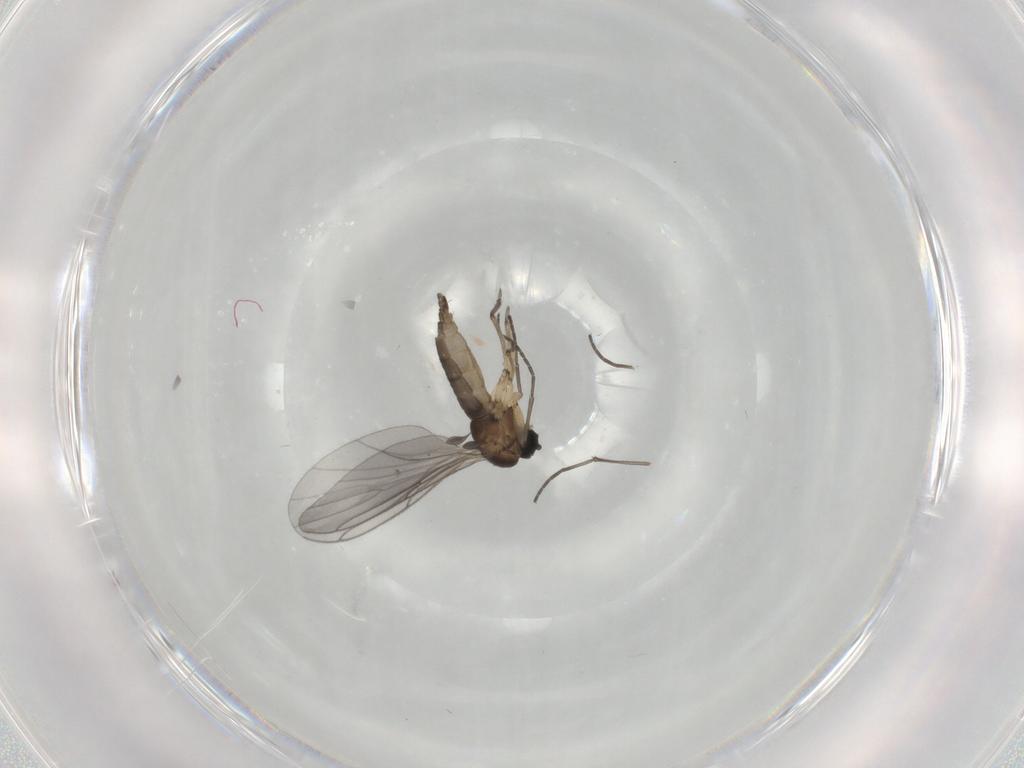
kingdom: Animalia
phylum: Arthropoda
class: Insecta
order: Diptera
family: Sciaridae
